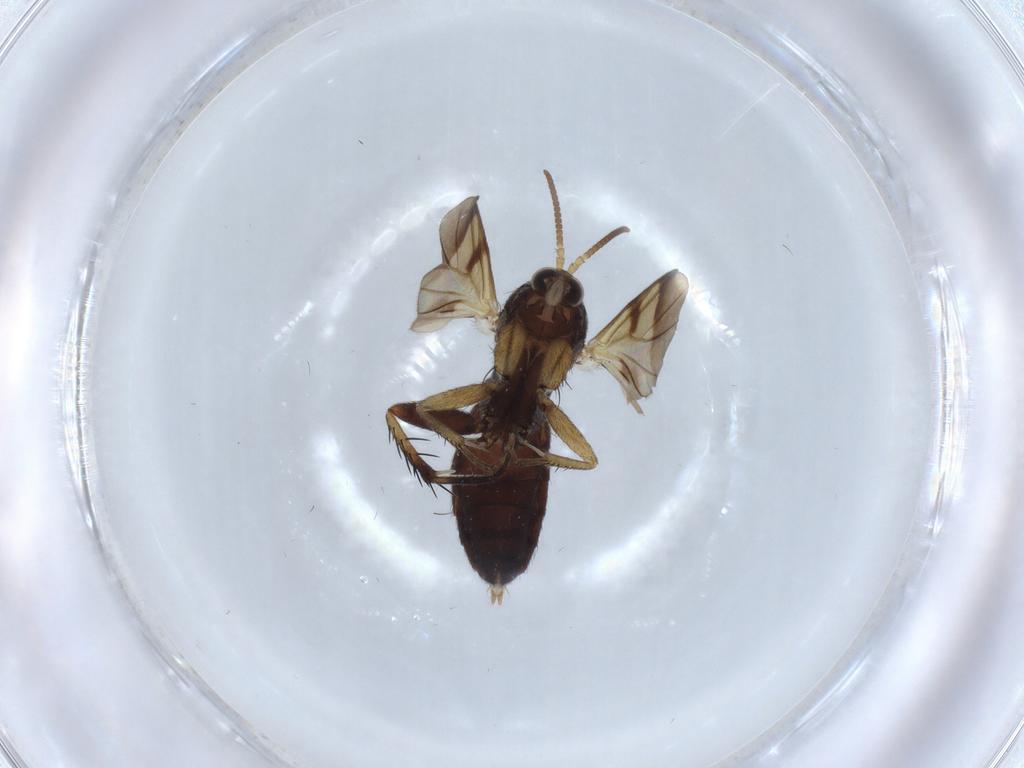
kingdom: Animalia
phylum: Arthropoda
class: Insecta
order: Diptera
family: Mycetophilidae
